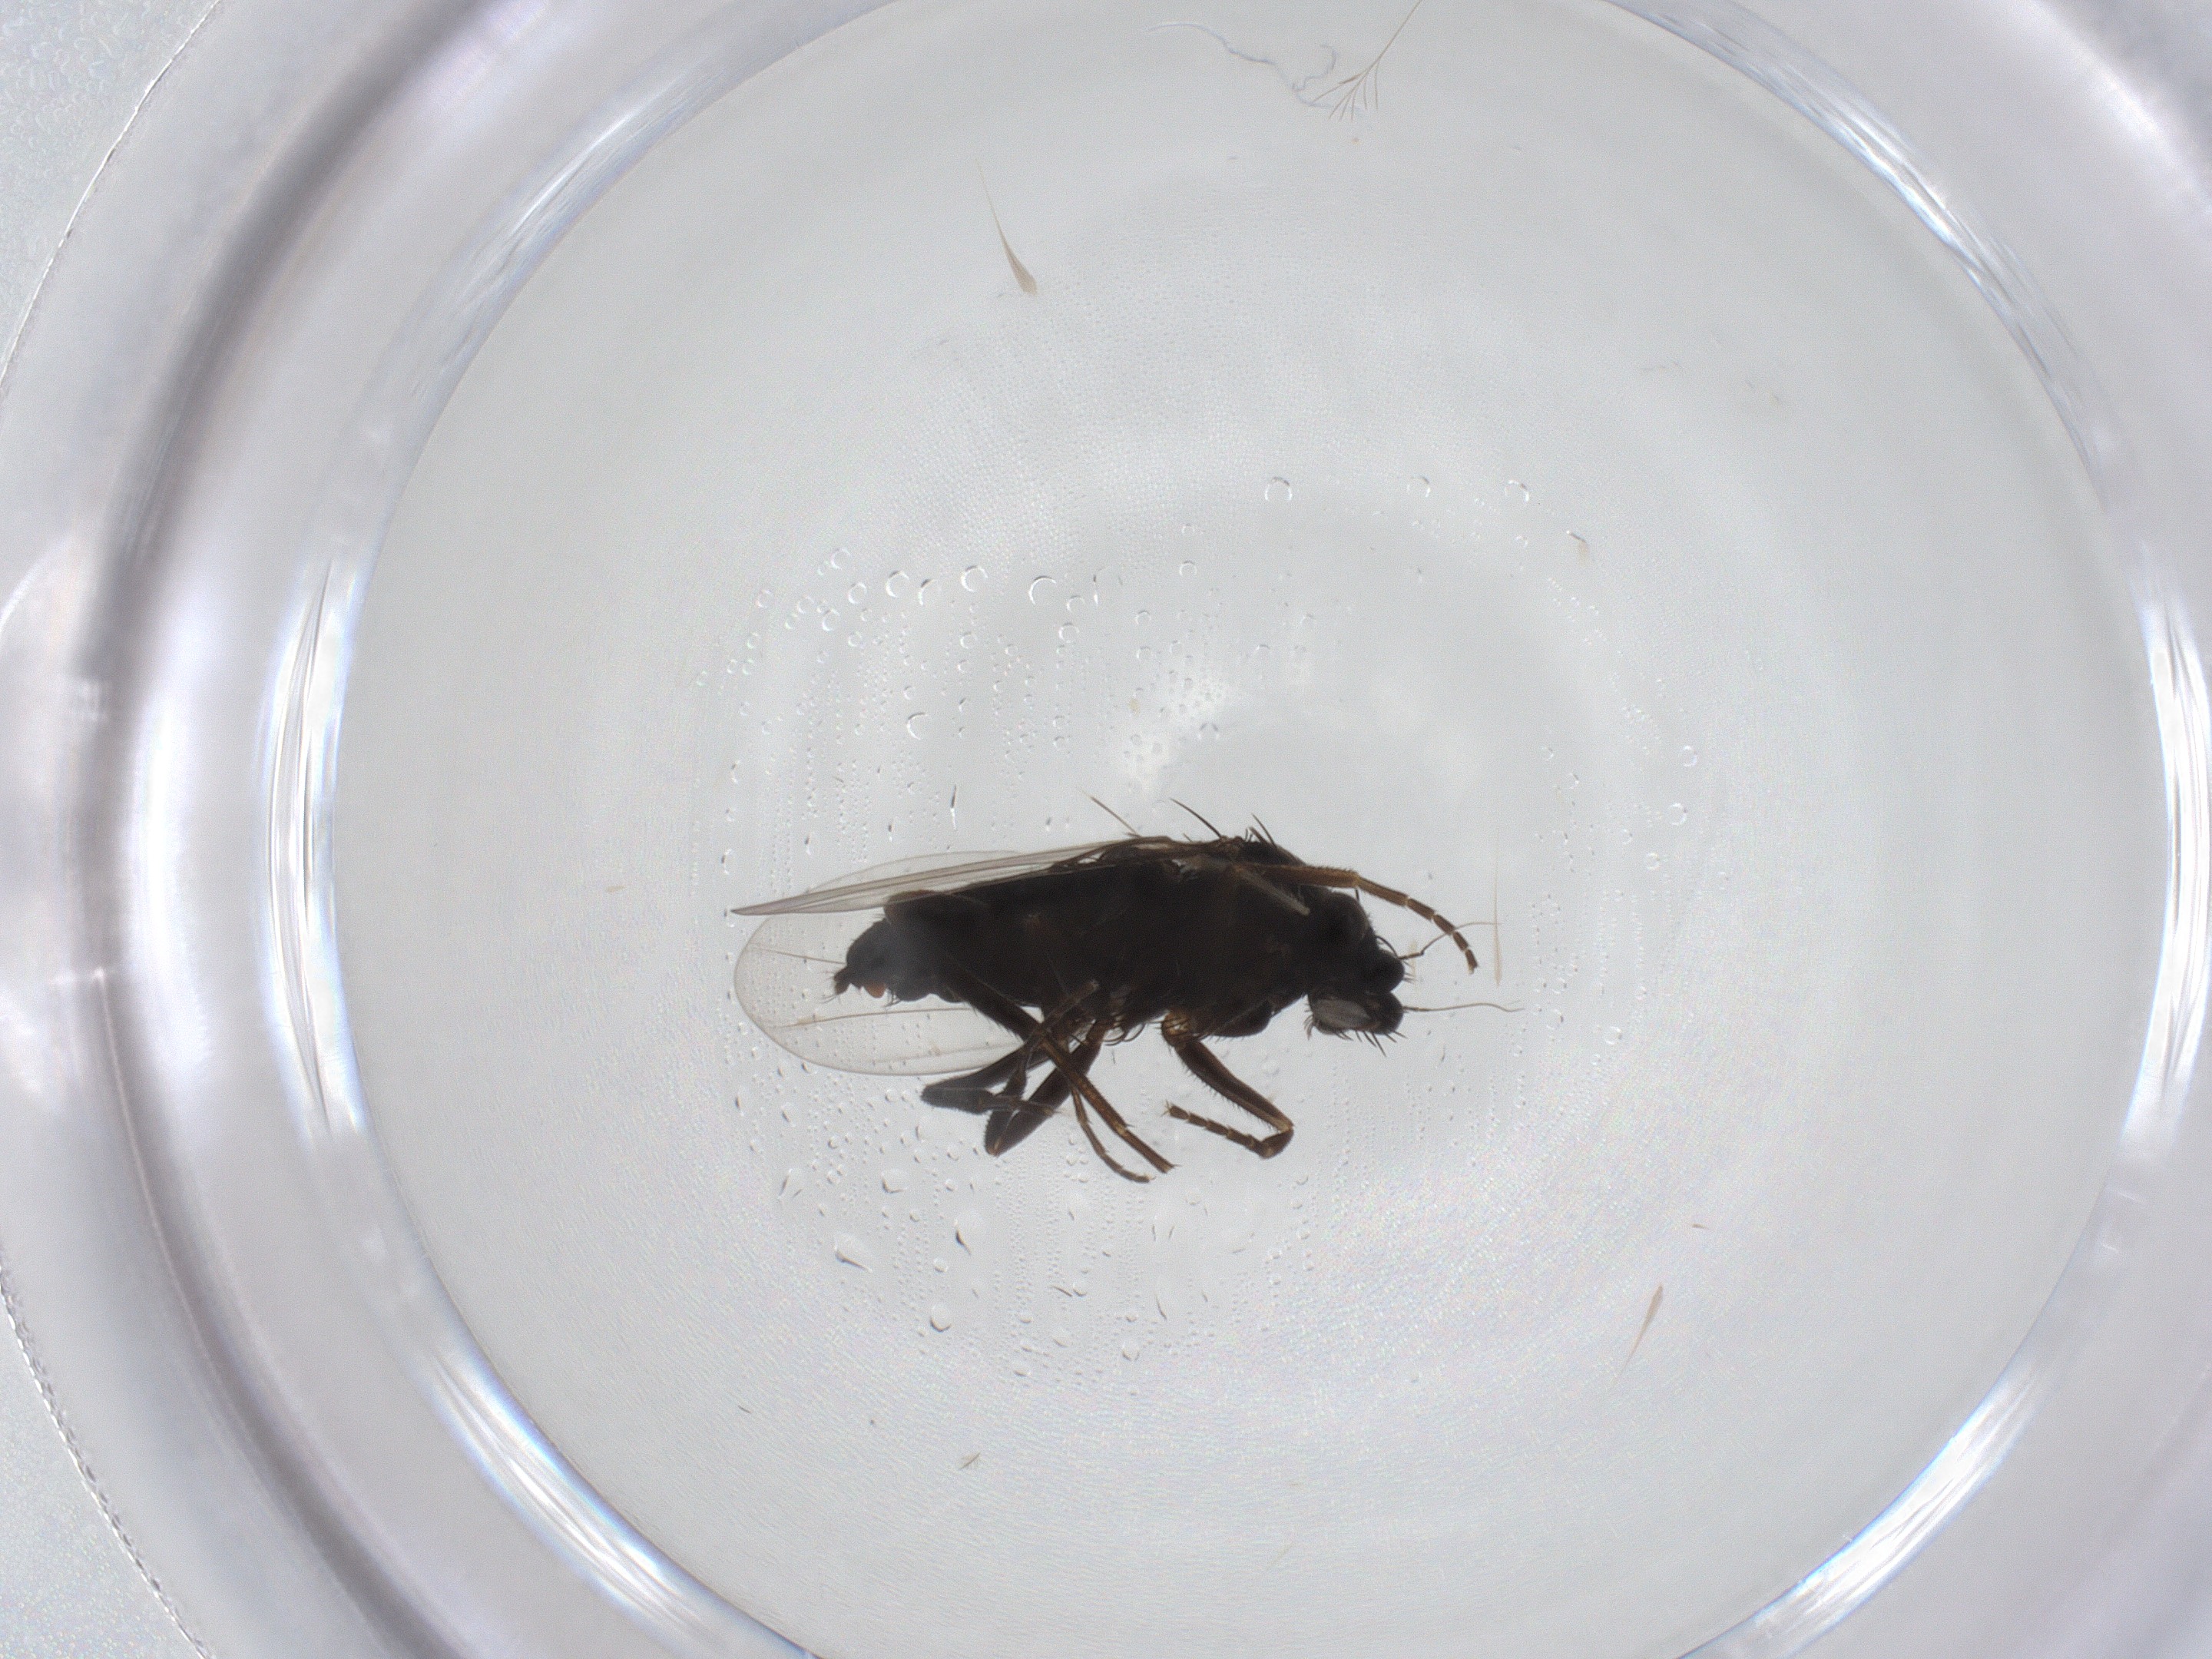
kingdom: Animalia
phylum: Arthropoda
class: Insecta
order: Diptera
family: Phoridae
